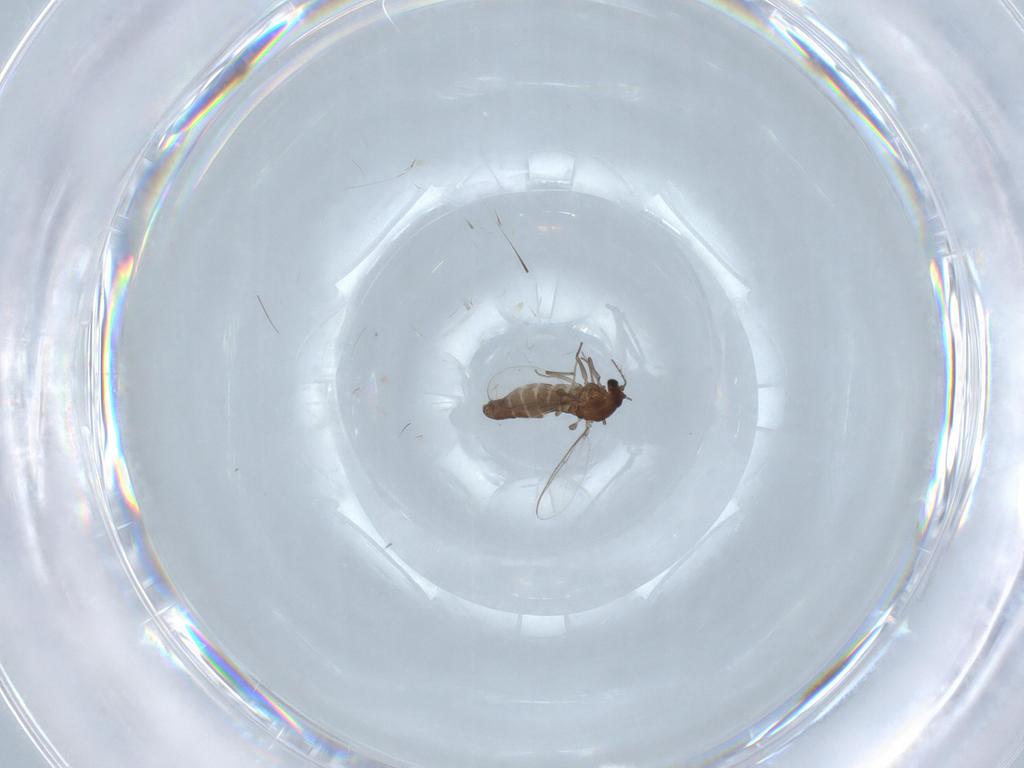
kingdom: Animalia
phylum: Arthropoda
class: Insecta
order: Diptera
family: Chironomidae
